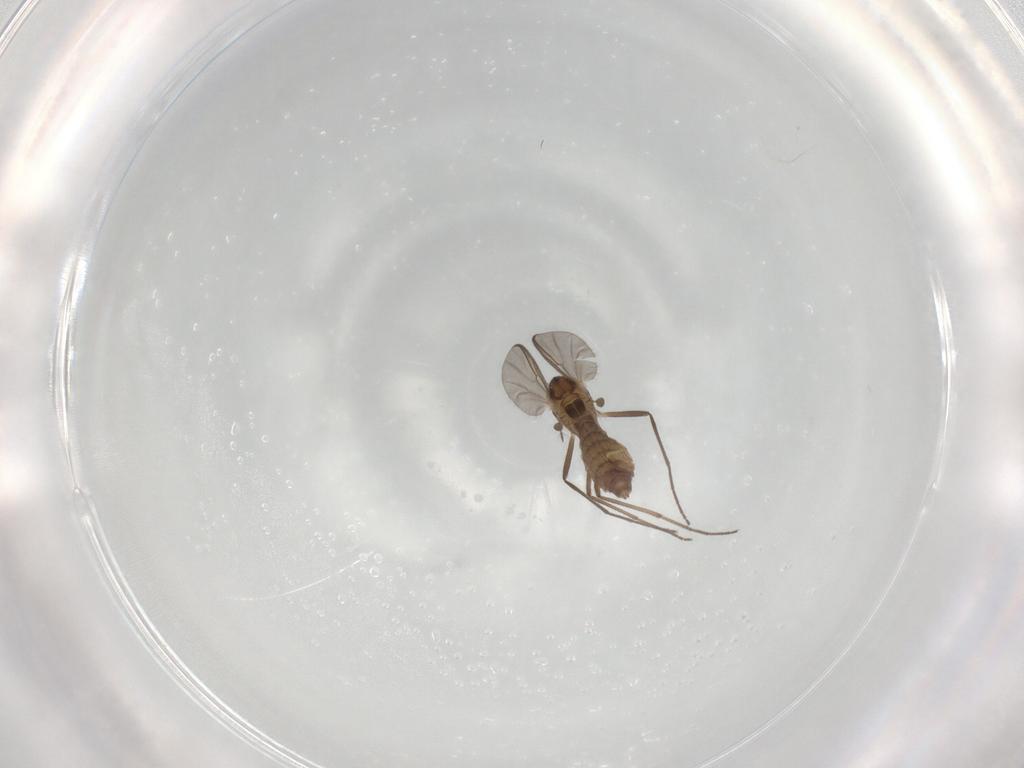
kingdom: Animalia
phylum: Arthropoda
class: Insecta
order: Diptera
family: Chironomidae
